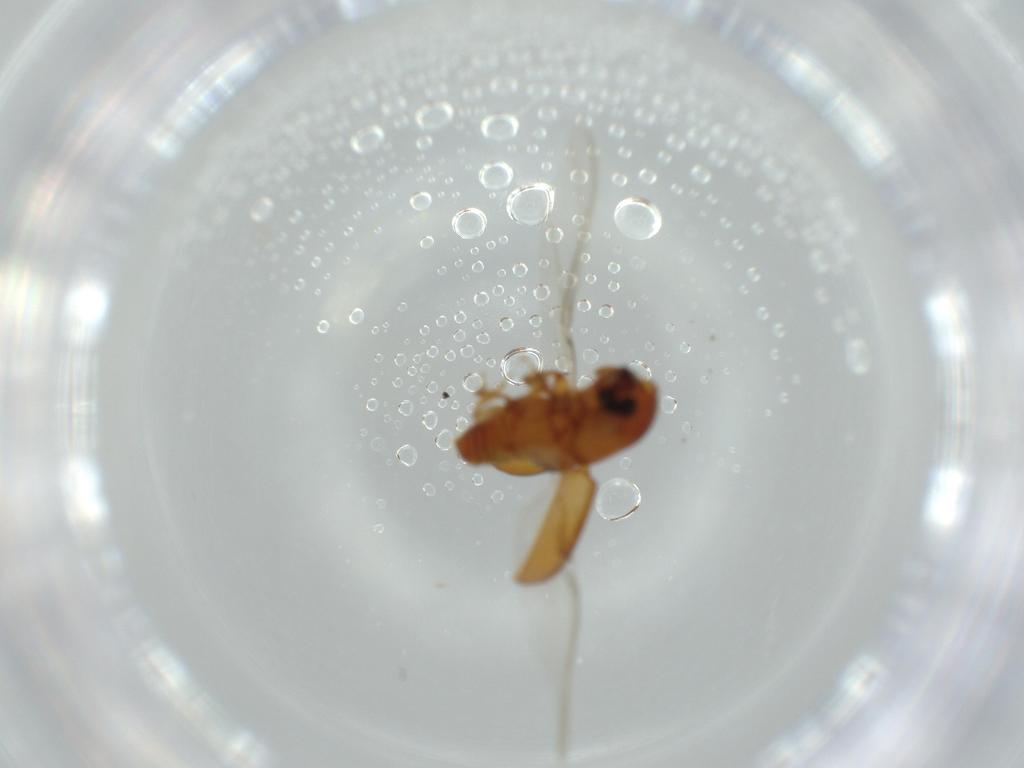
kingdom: Animalia
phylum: Arthropoda
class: Insecta
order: Coleoptera
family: Curculionidae
